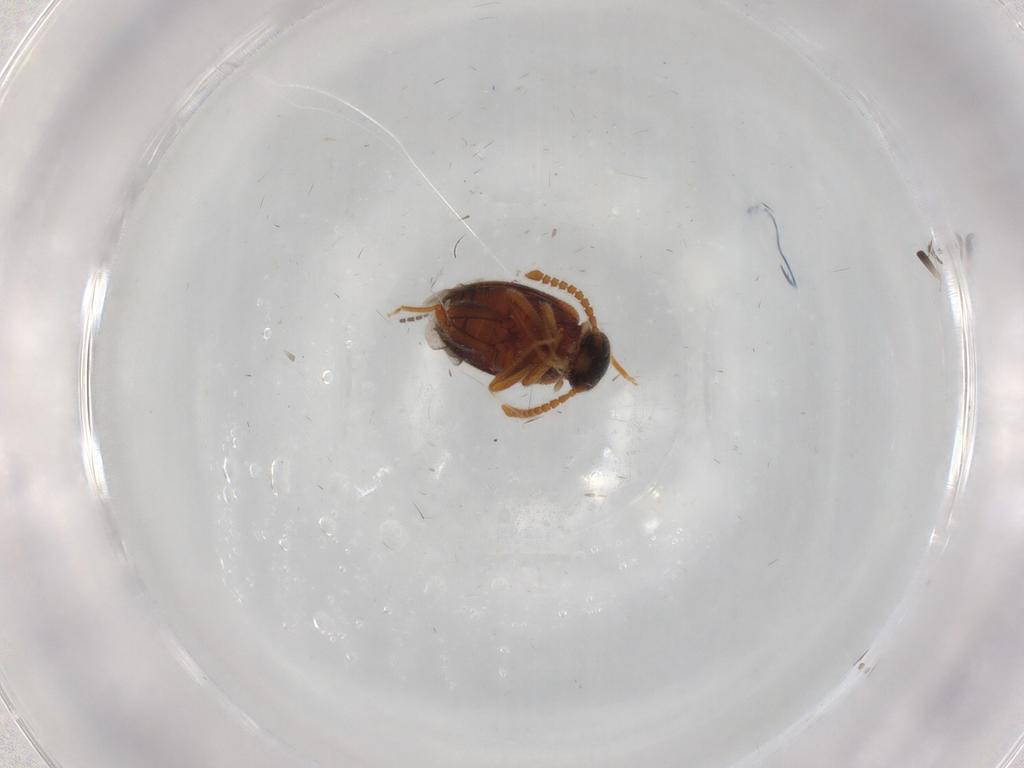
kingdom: Animalia
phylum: Arthropoda
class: Insecta
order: Coleoptera
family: Aderidae
